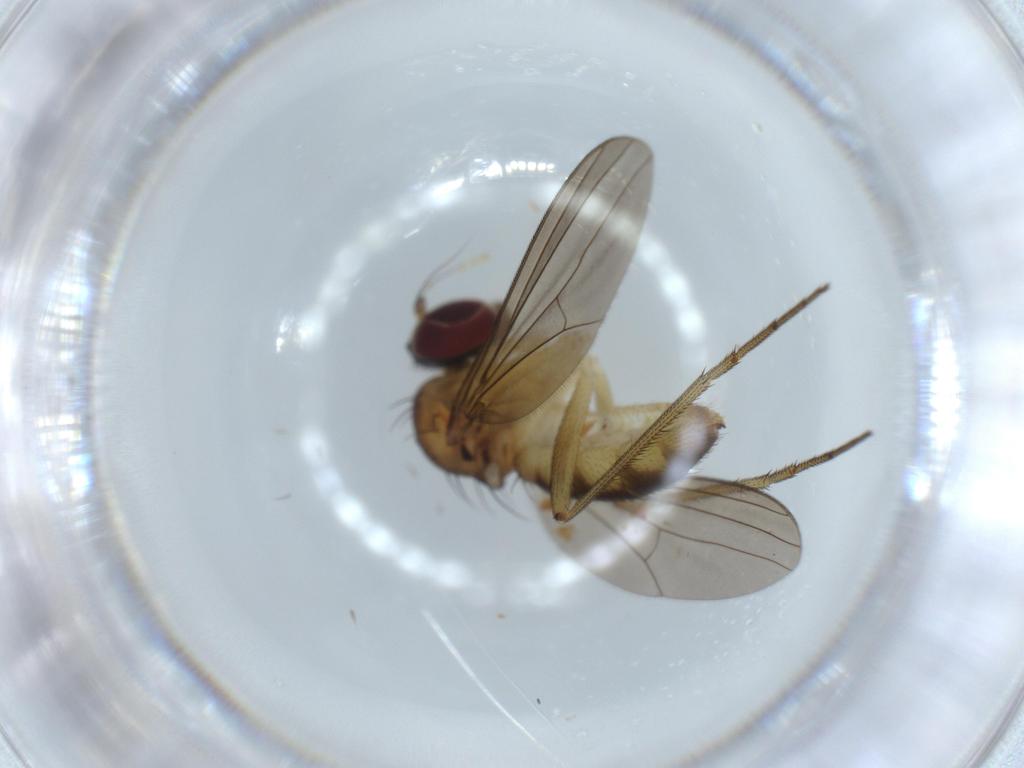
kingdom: Animalia
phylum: Arthropoda
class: Insecta
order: Diptera
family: Dolichopodidae
